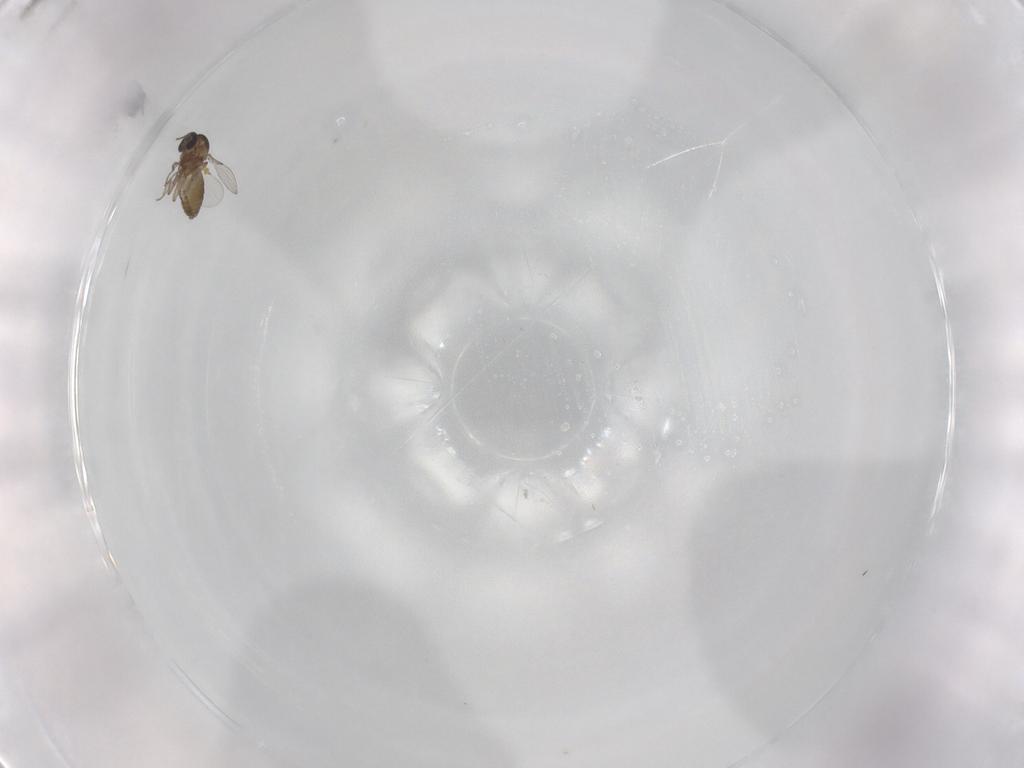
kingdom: Animalia
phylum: Arthropoda
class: Insecta
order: Diptera
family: Ceratopogonidae
